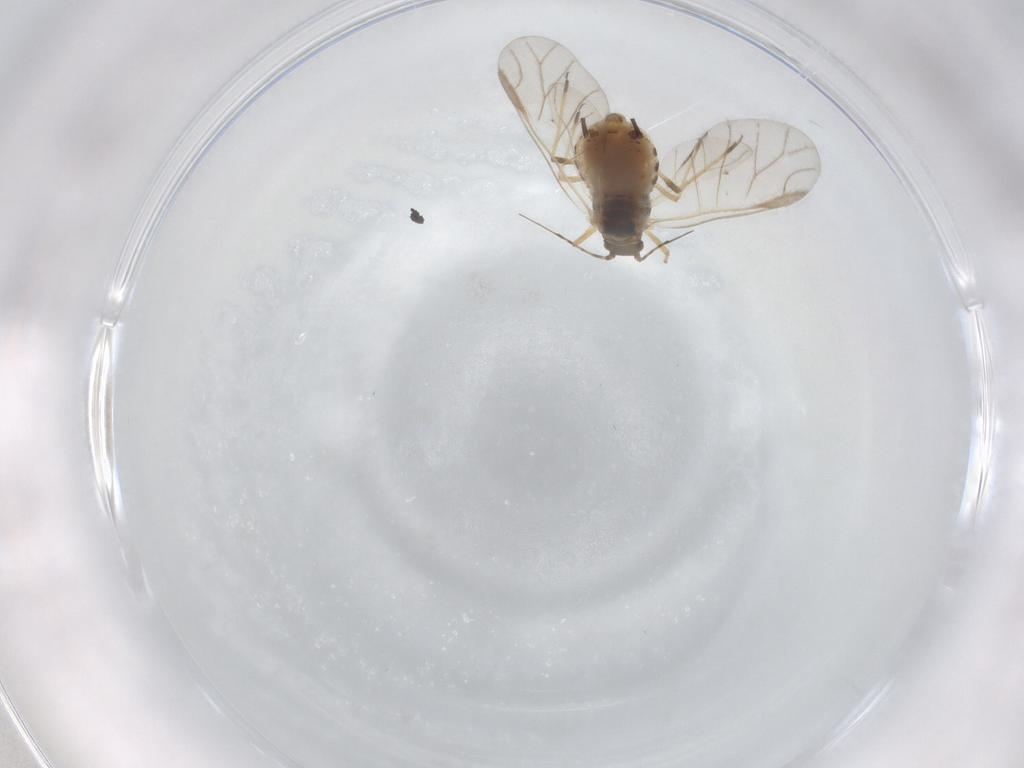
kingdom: Animalia
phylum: Arthropoda
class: Insecta
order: Hemiptera
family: Aphididae
